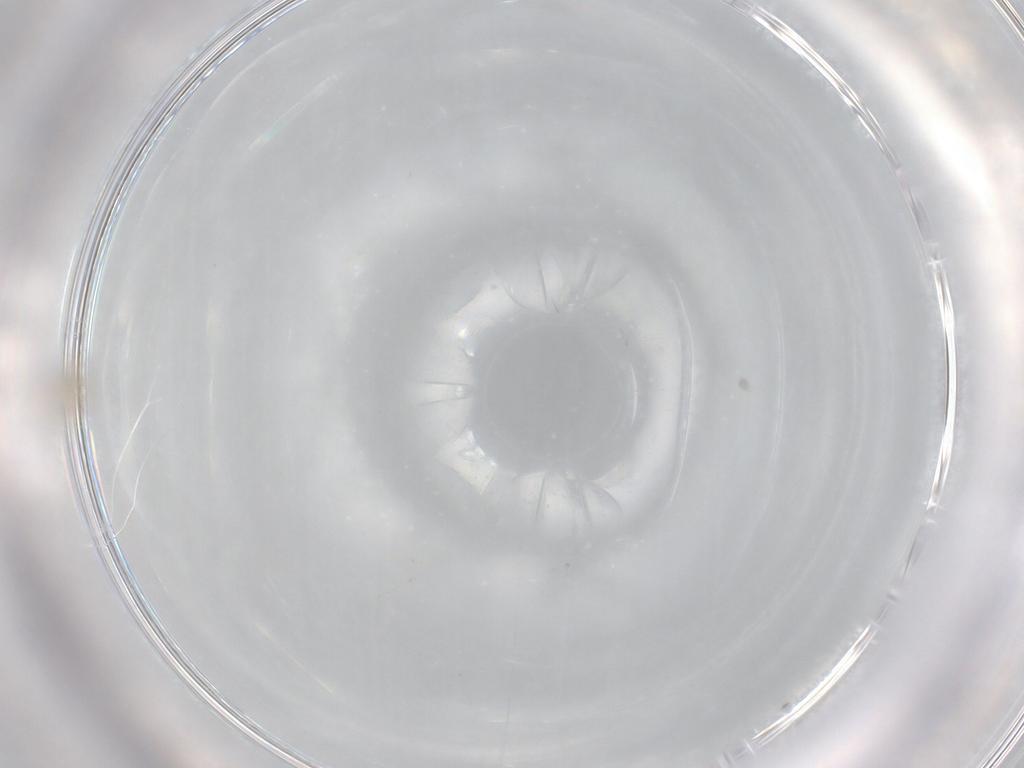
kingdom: Animalia
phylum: Arthropoda
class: Insecta
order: Diptera
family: Cecidomyiidae
